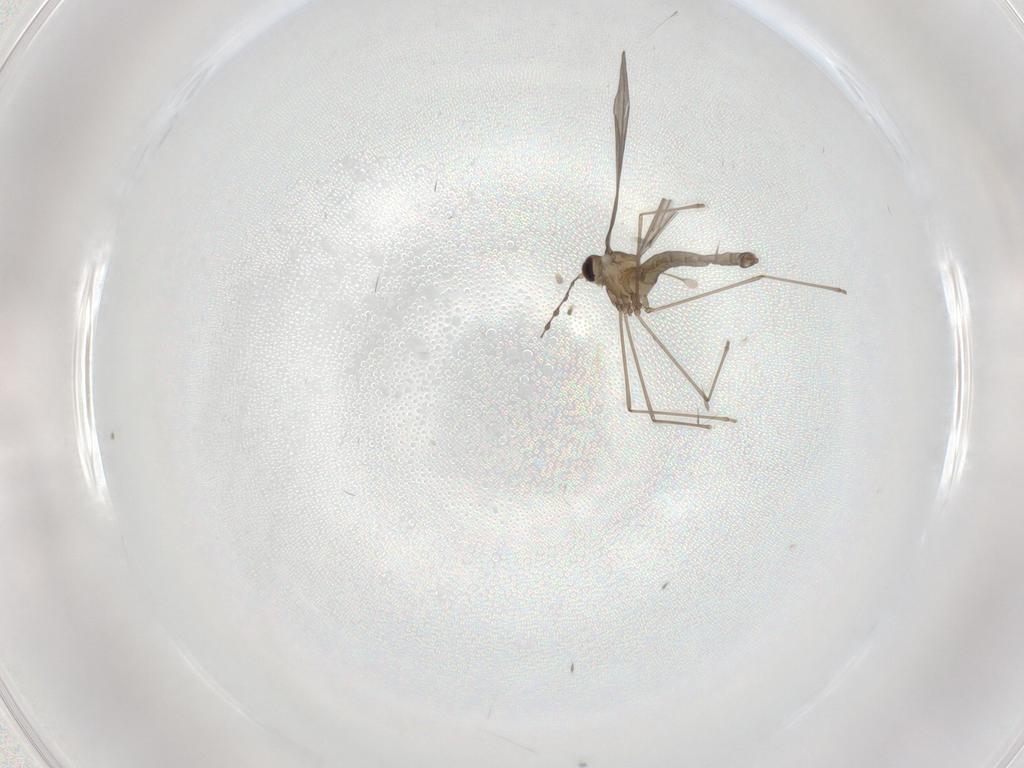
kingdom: Animalia
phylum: Arthropoda
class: Insecta
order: Diptera
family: Cecidomyiidae
